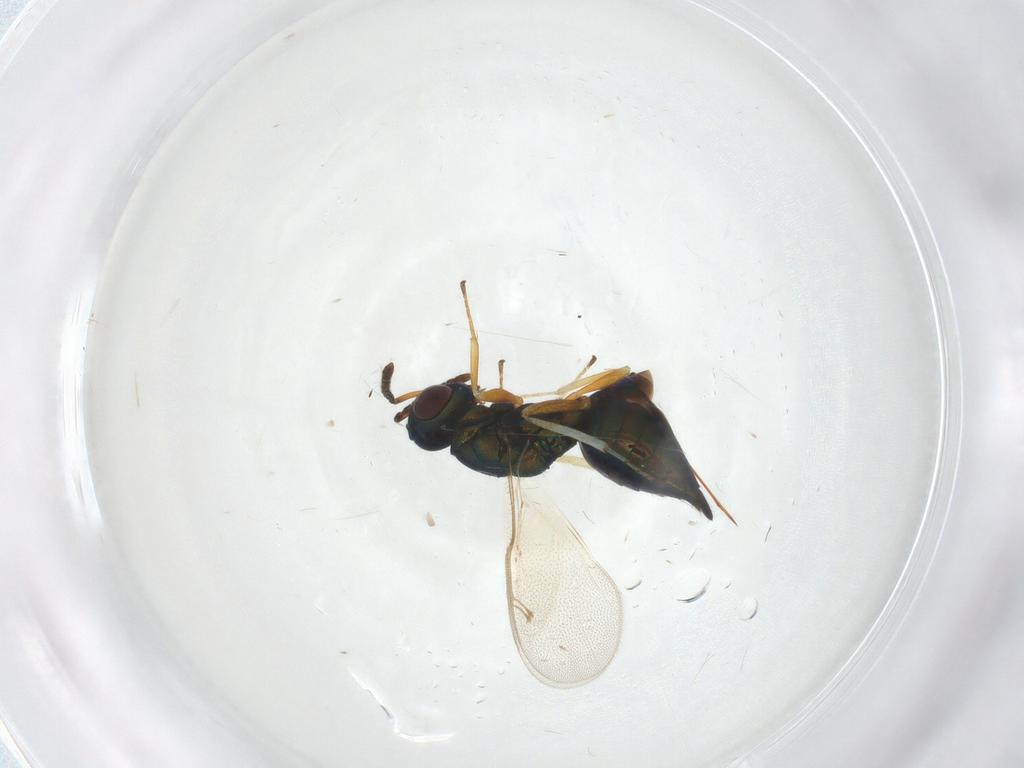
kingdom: Animalia
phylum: Arthropoda
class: Insecta
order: Hymenoptera
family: Pteromalidae
